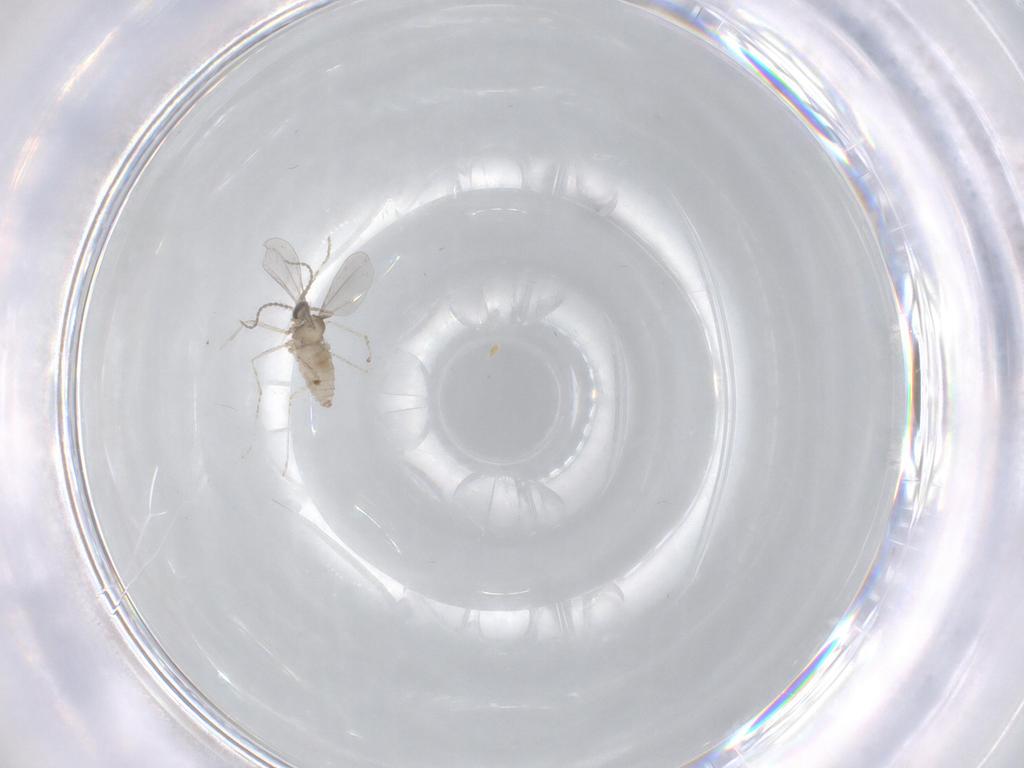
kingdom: Animalia
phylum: Arthropoda
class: Insecta
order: Diptera
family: Cecidomyiidae
